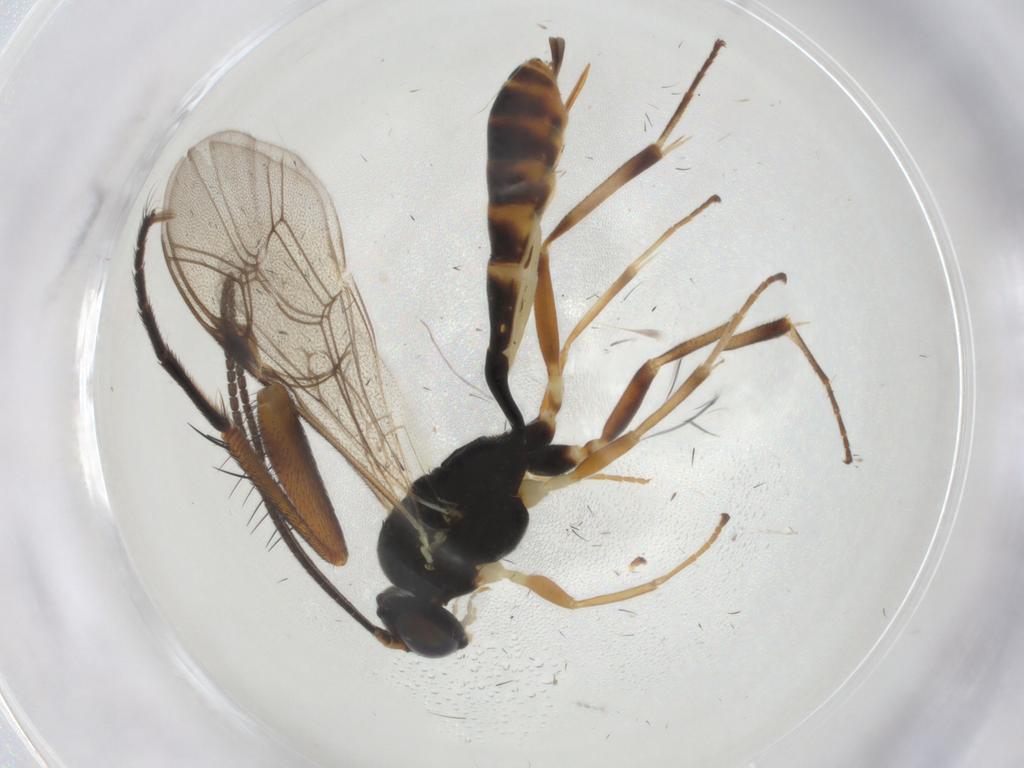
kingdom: Animalia
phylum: Arthropoda
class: Insecta
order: Hymenoptera
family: Ichneumonidae
